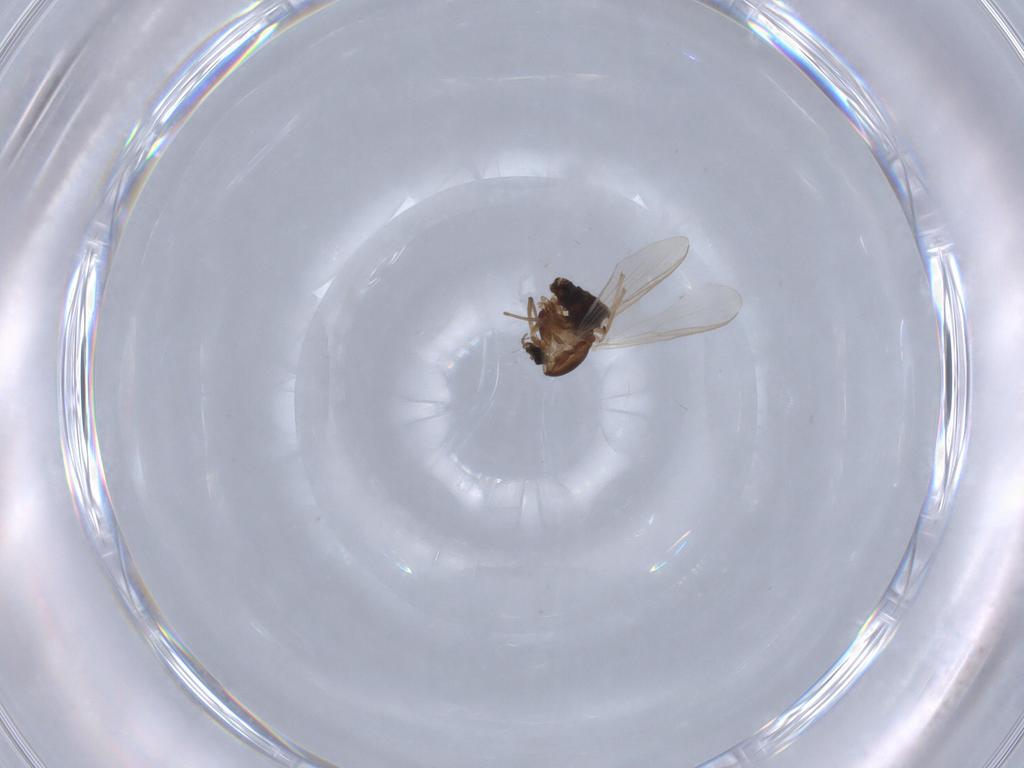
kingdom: Animalia
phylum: Arthropoda
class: Insecta
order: Diptera
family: Chironomidae
